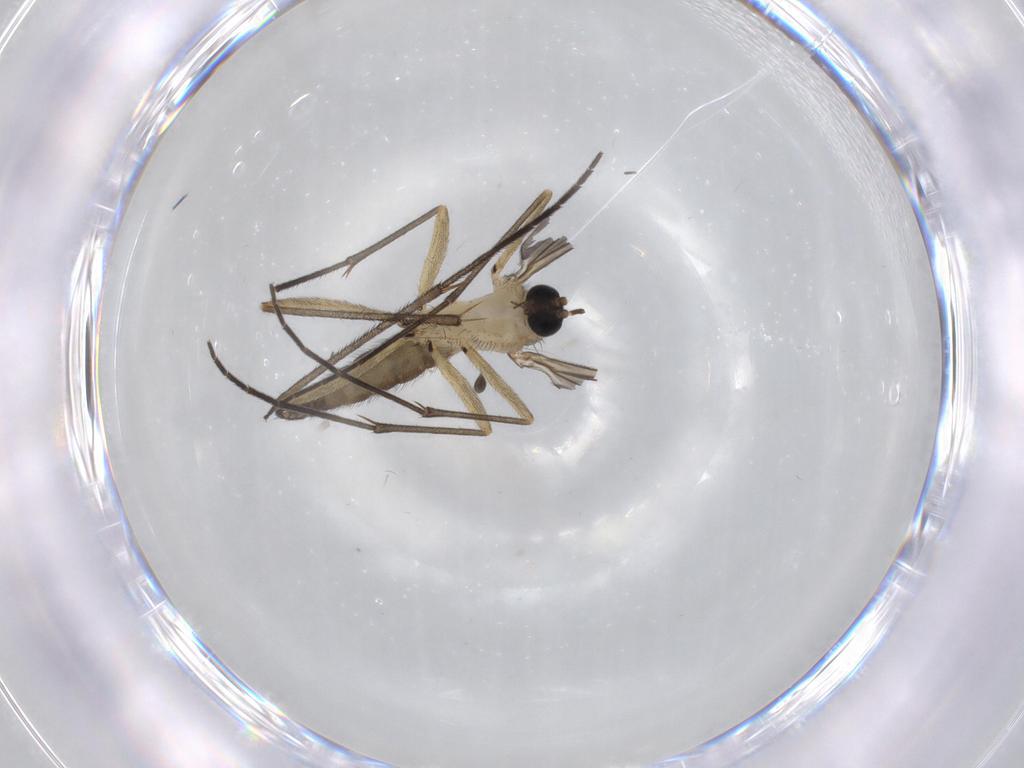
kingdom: Animalia
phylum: Arthropoda
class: Insecta
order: Diptera
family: Sciaridae
